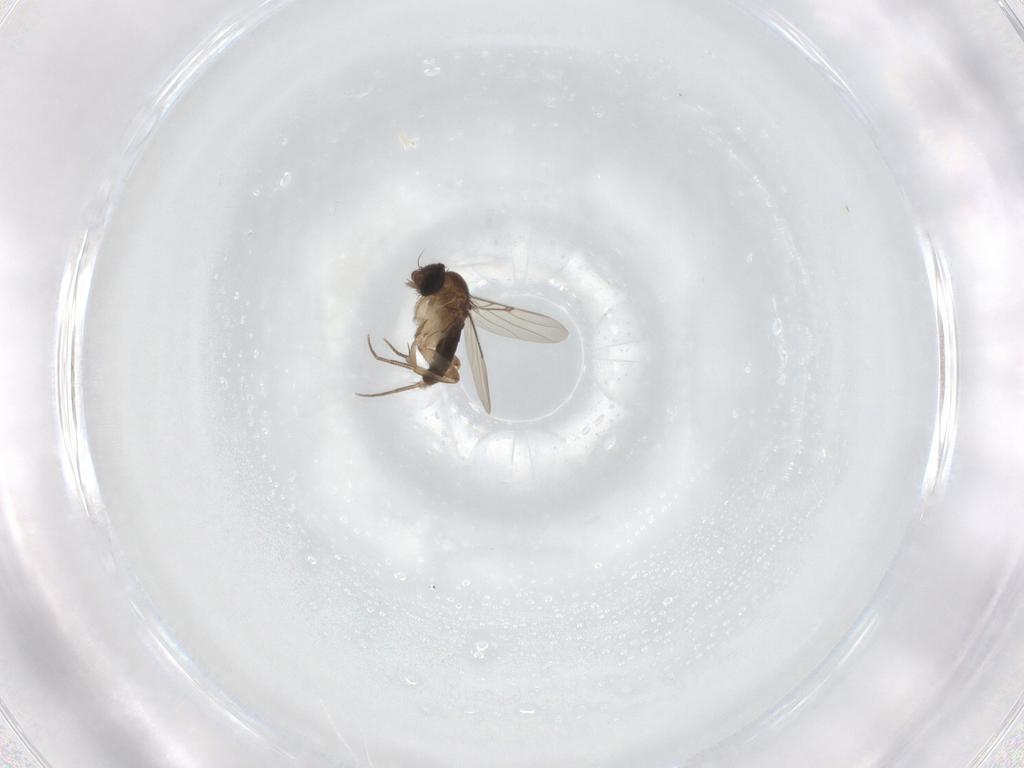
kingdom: Animalia
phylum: Arthropoda
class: Insecta
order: Diptera
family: Sciaridae
